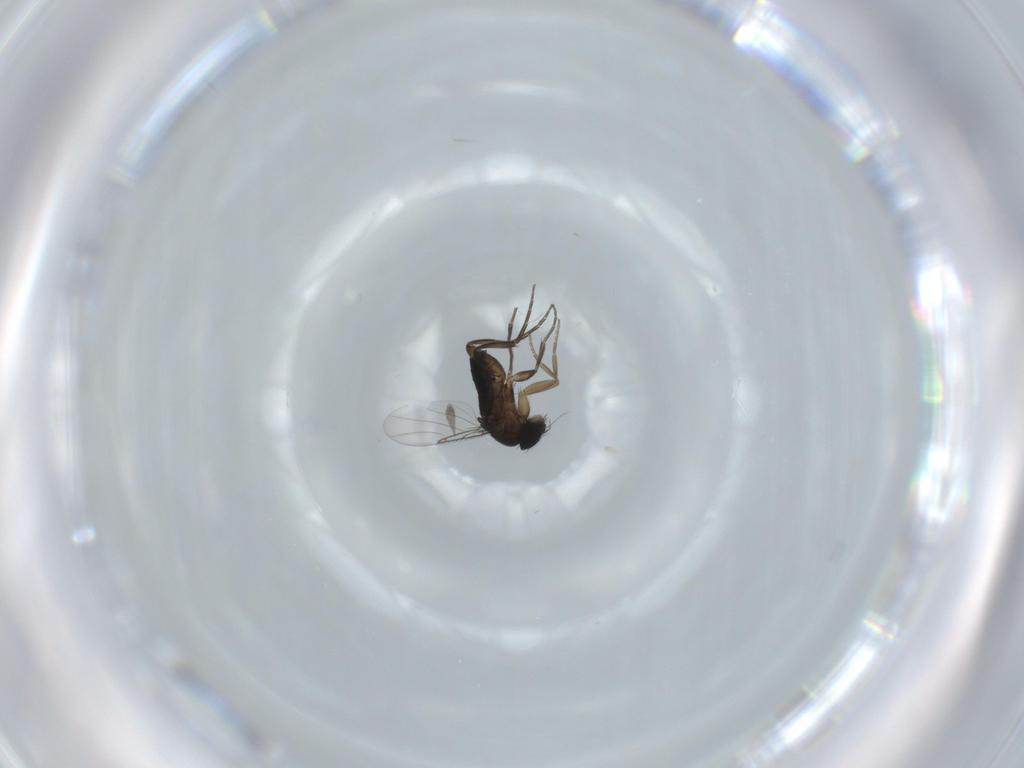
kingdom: Animalia
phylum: Arthropoda
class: Insecta
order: Diptera
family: Phoridae
